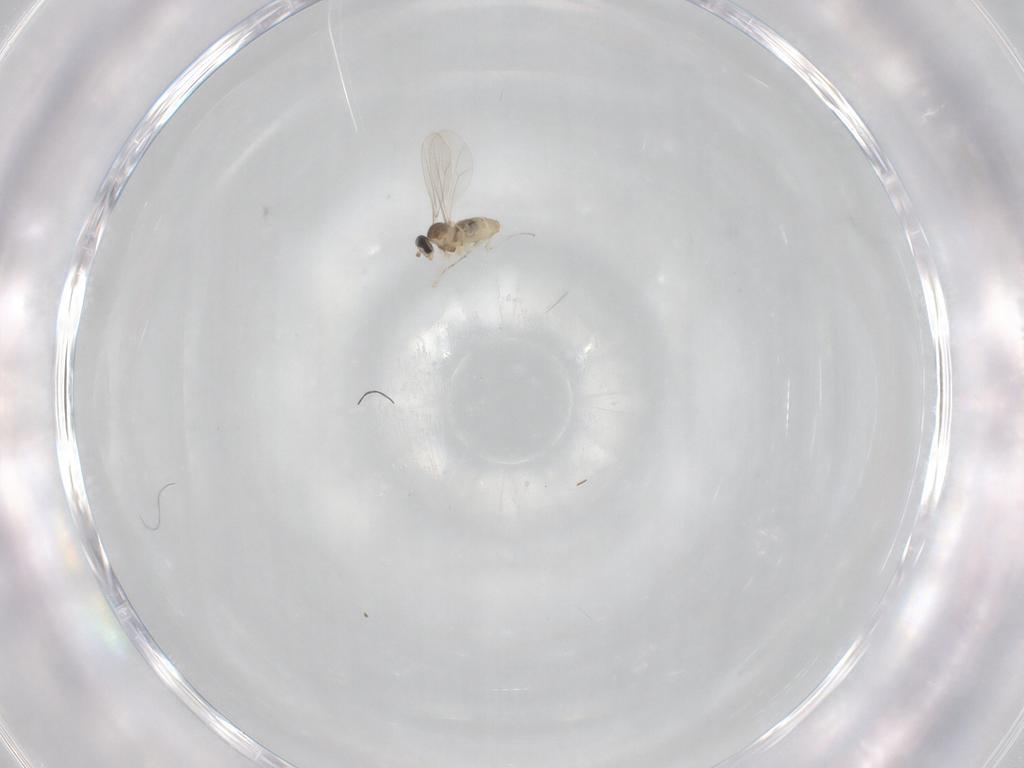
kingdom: Animalia
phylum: Arthropoda
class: Insecta
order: Diptera
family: Cecidomyiidae
